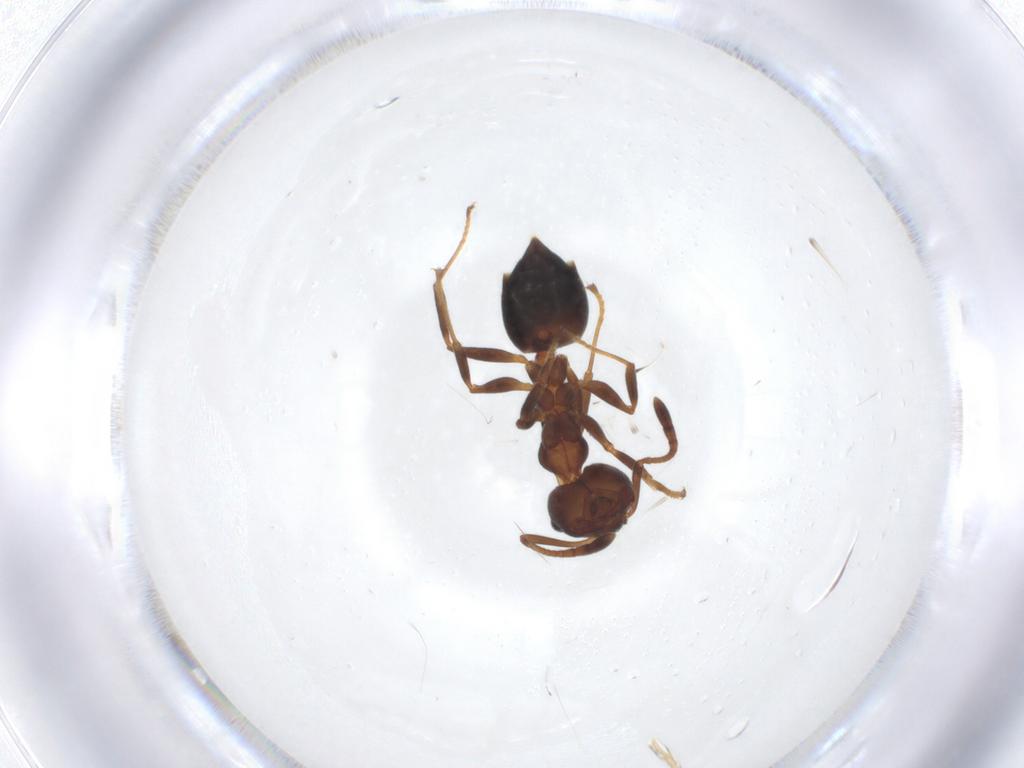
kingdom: Animalia
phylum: Arthropoda
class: Insecta
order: Hymenoptera
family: Formicidae
